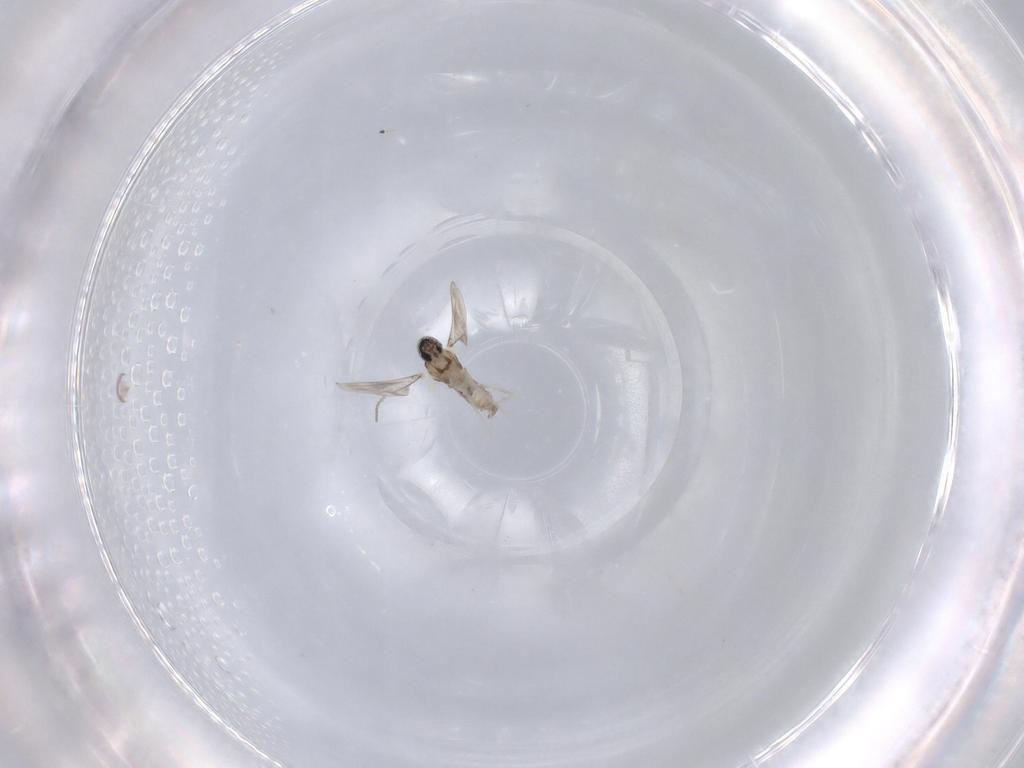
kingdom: Animalia
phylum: Arthropoda
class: Insecta
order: Diptera
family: Cecidomyiidae
